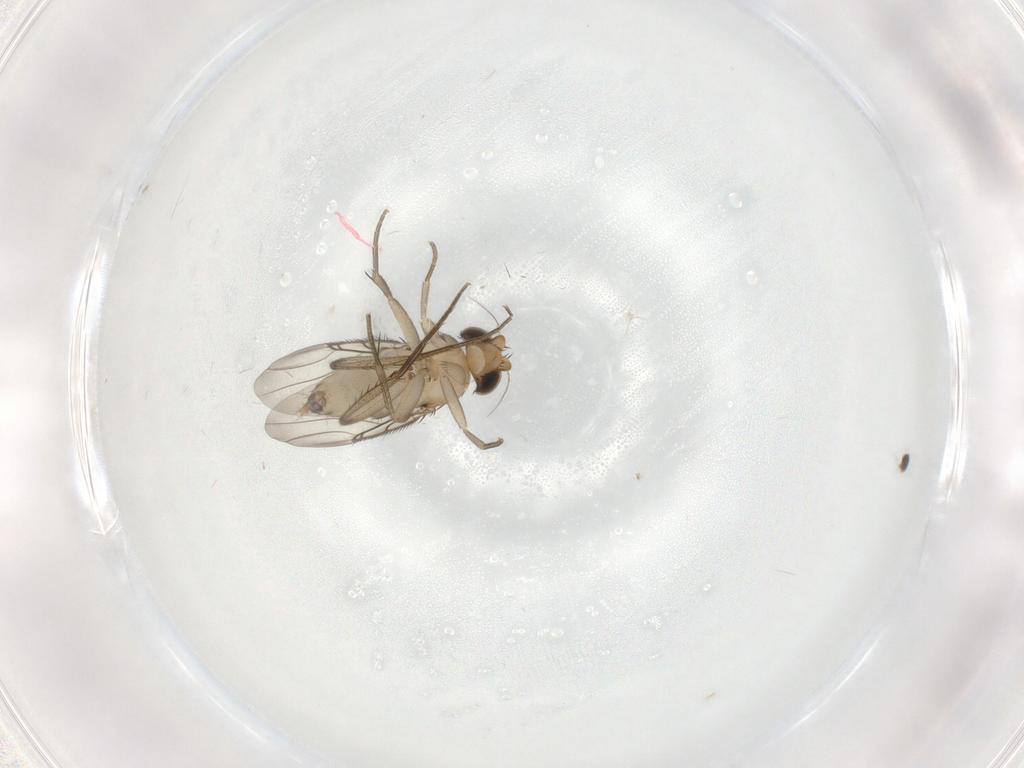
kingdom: Animalia
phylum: Arthropoda
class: Insecta
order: Diptera
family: Phoridae
